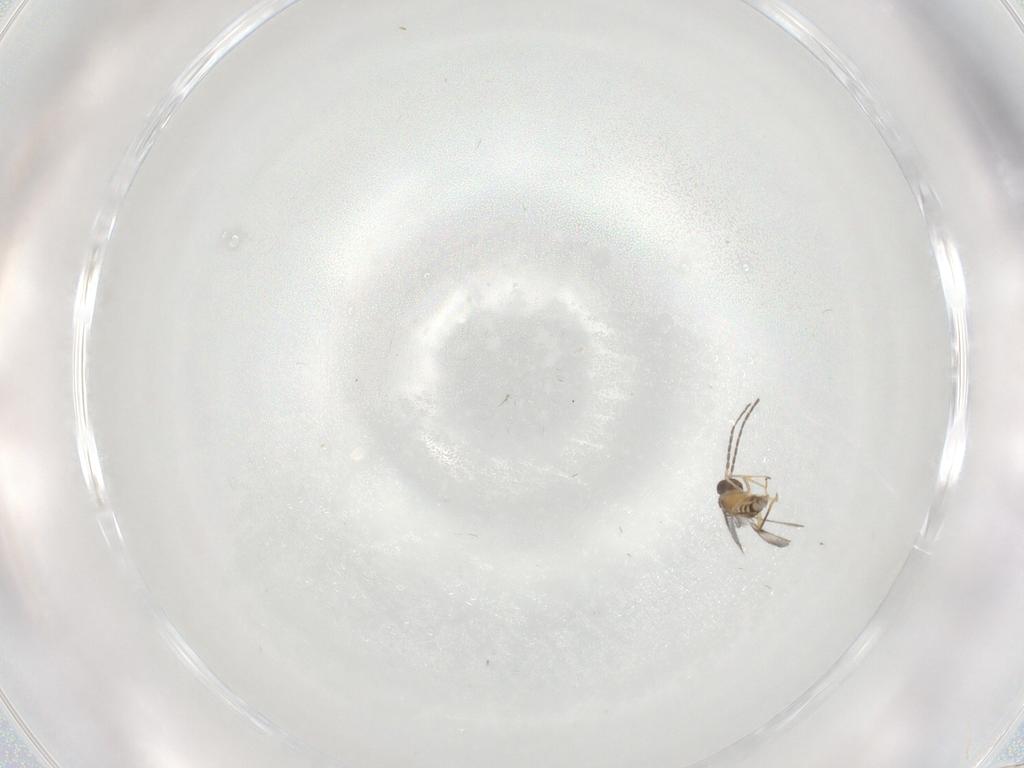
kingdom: Animalia
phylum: Arthropoda
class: Insecta
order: Hymenoptera
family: Mymaridae
